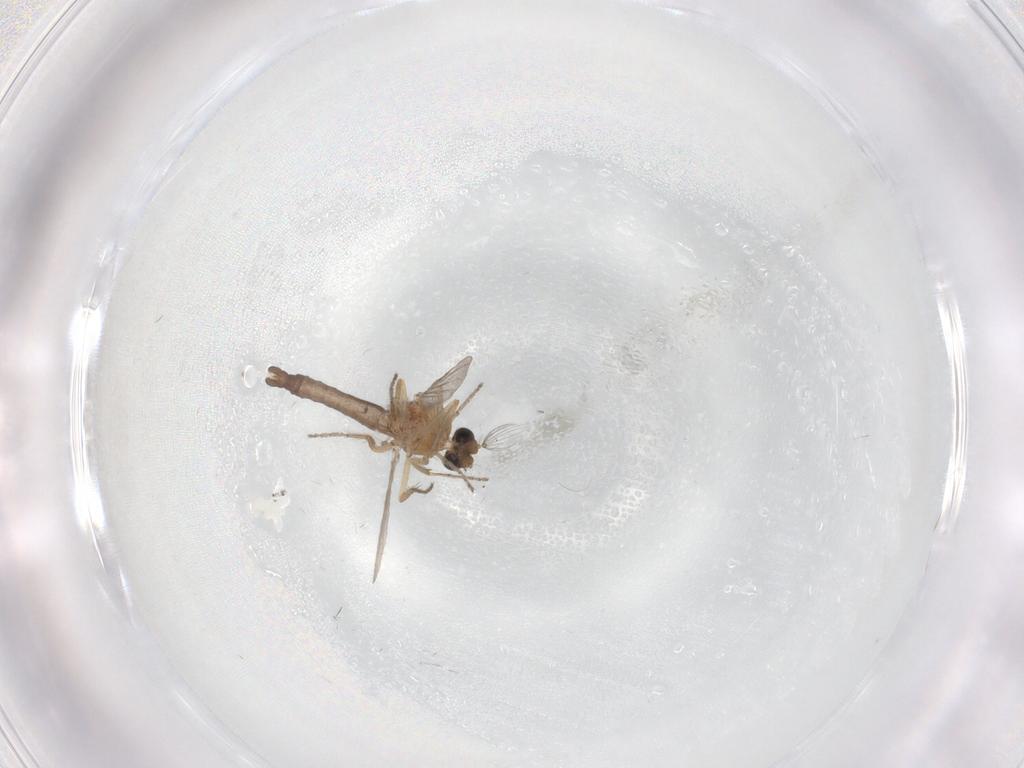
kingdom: Animalia
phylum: Arthropoda
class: Insecta
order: Diptera
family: Ceratopogonidae
